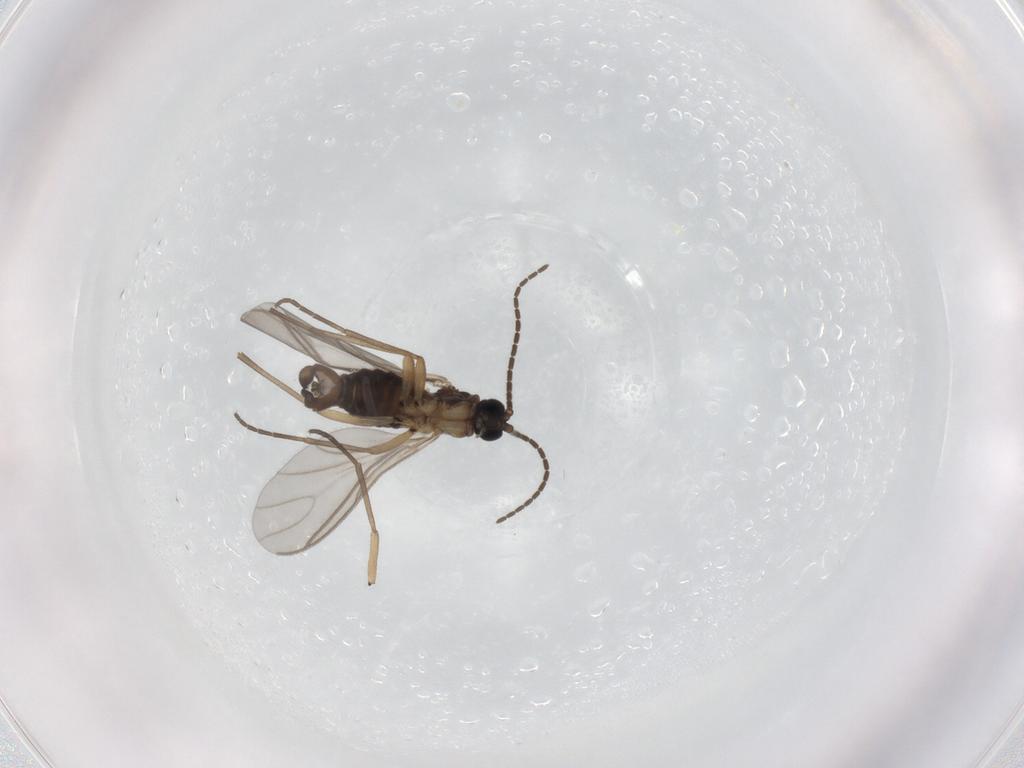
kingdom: Animalia
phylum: Arthropoda
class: Insecta
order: Diptera
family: Sciaridae
